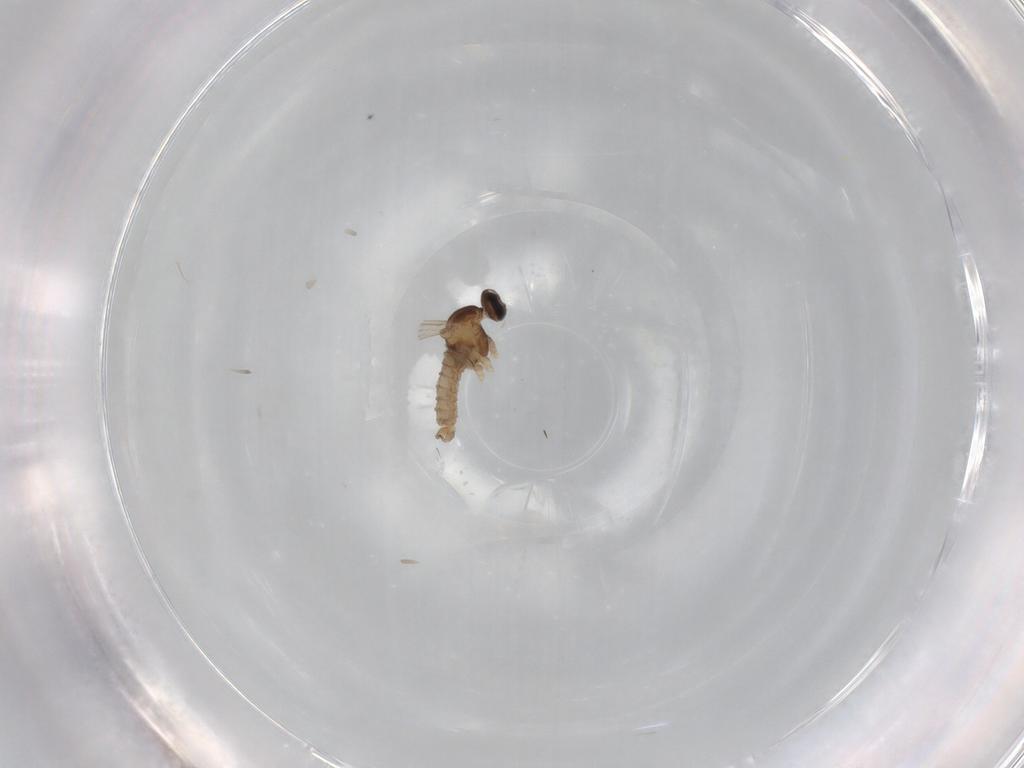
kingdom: Animalia
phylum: Arthropoda
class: Insecta
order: Diptera
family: Cecidomyiidae
